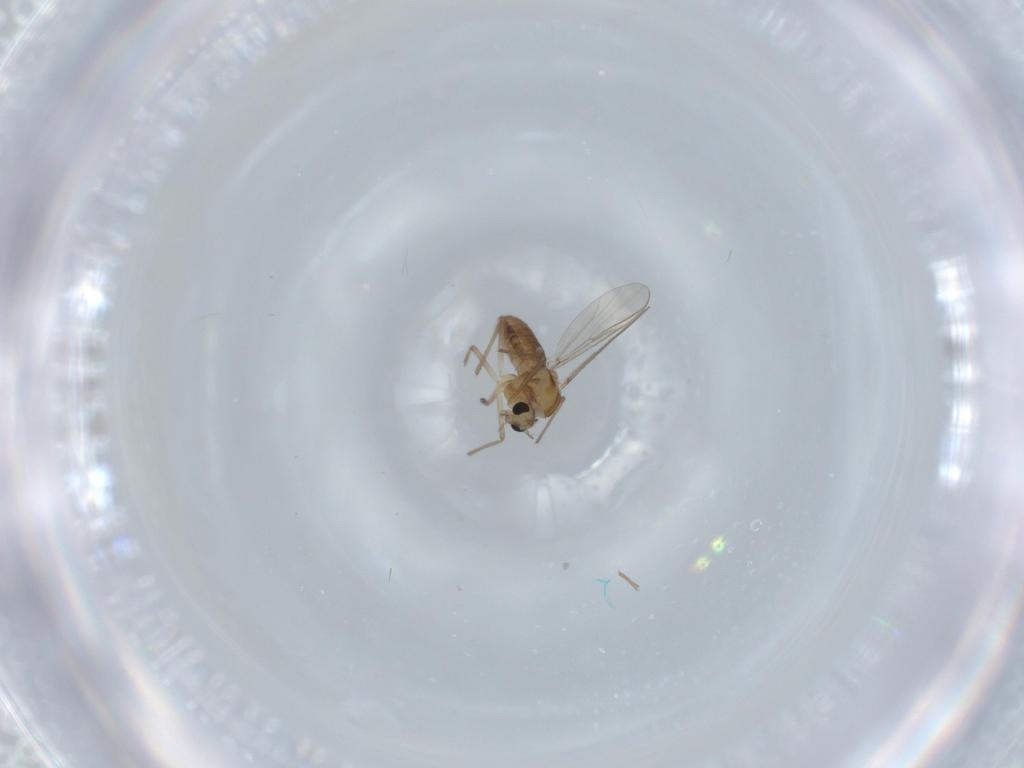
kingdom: Animalia
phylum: Arthropoda
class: Insecta
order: Diptera
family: Chironomidae
